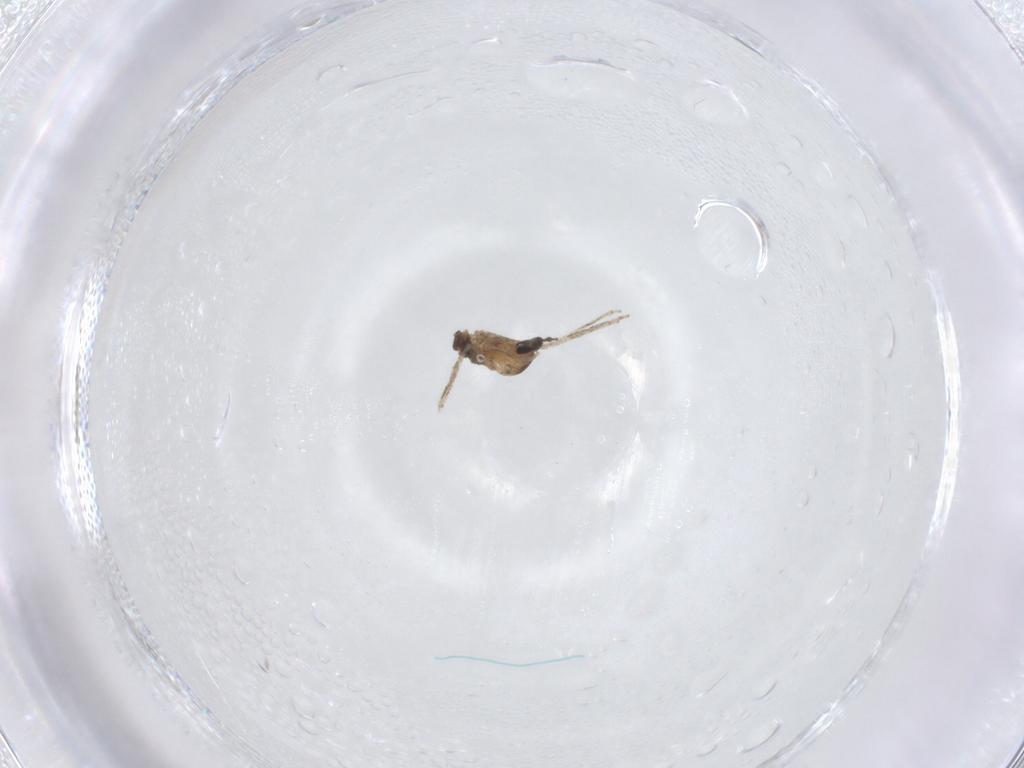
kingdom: Animalia
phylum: Arthropoda
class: Insecta
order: Diptera
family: Cecidomyiidae
